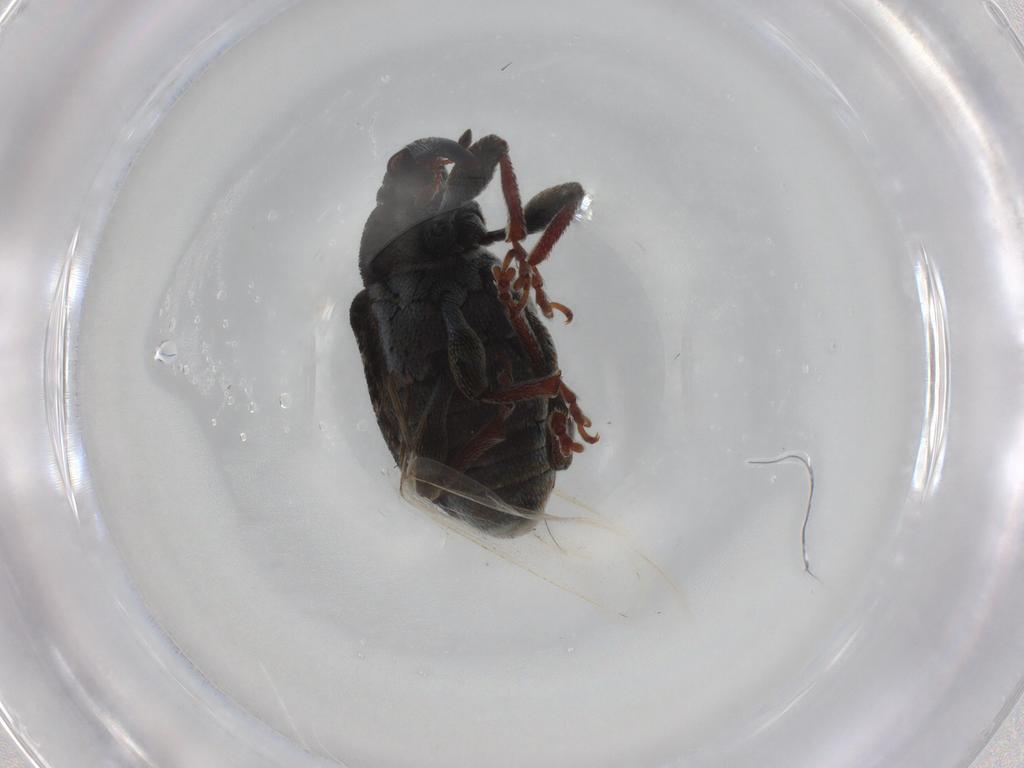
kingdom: Animalia
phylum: Arthropoda
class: Insecta
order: Coleoptera
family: Curculionidae
